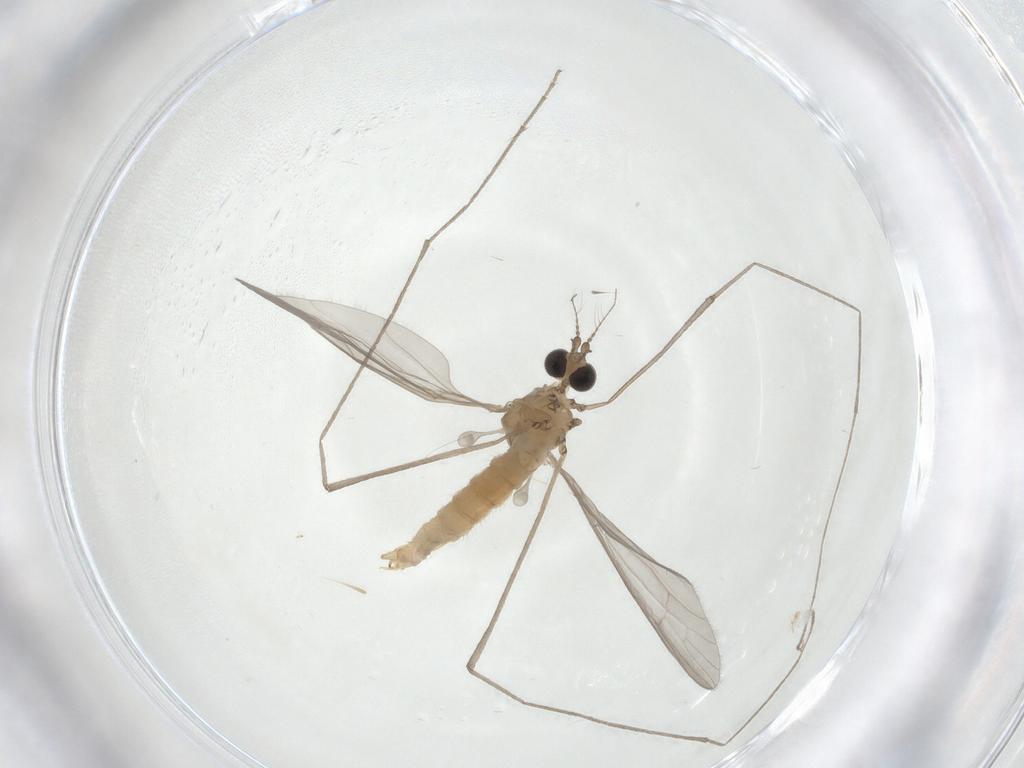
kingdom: Animalia
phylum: Arthropoda
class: Insecta
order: Diptera
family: Limoniidae
